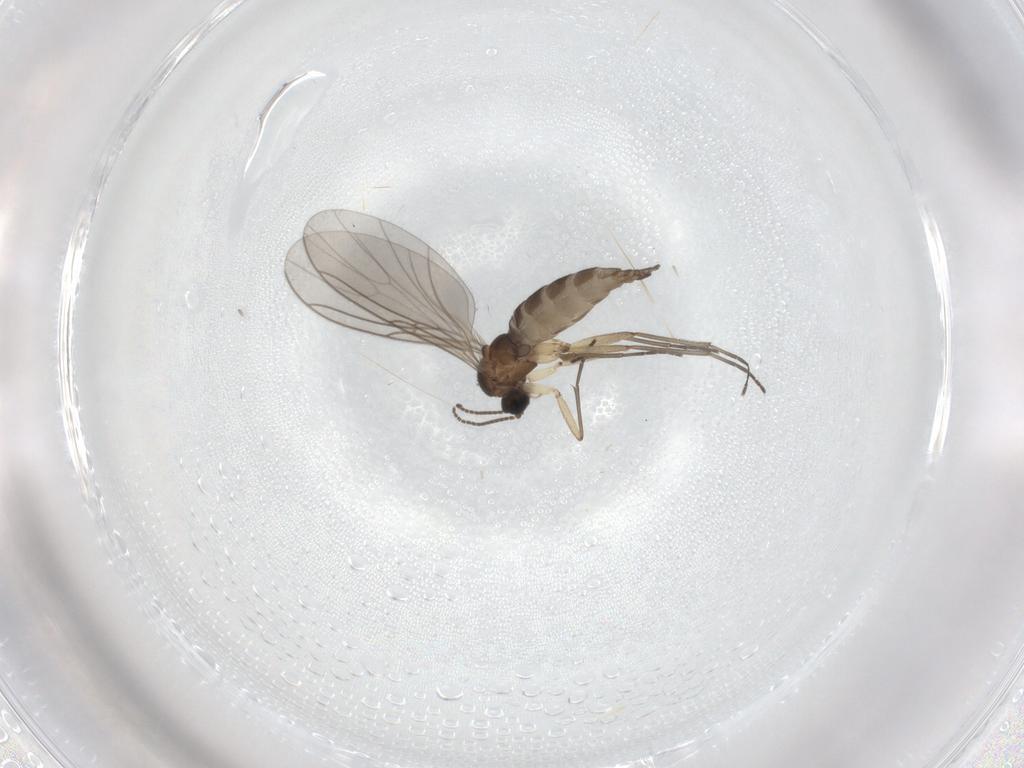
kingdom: Animalia
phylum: Arthropoda
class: Insecta
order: Diptera
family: Sciaridae
